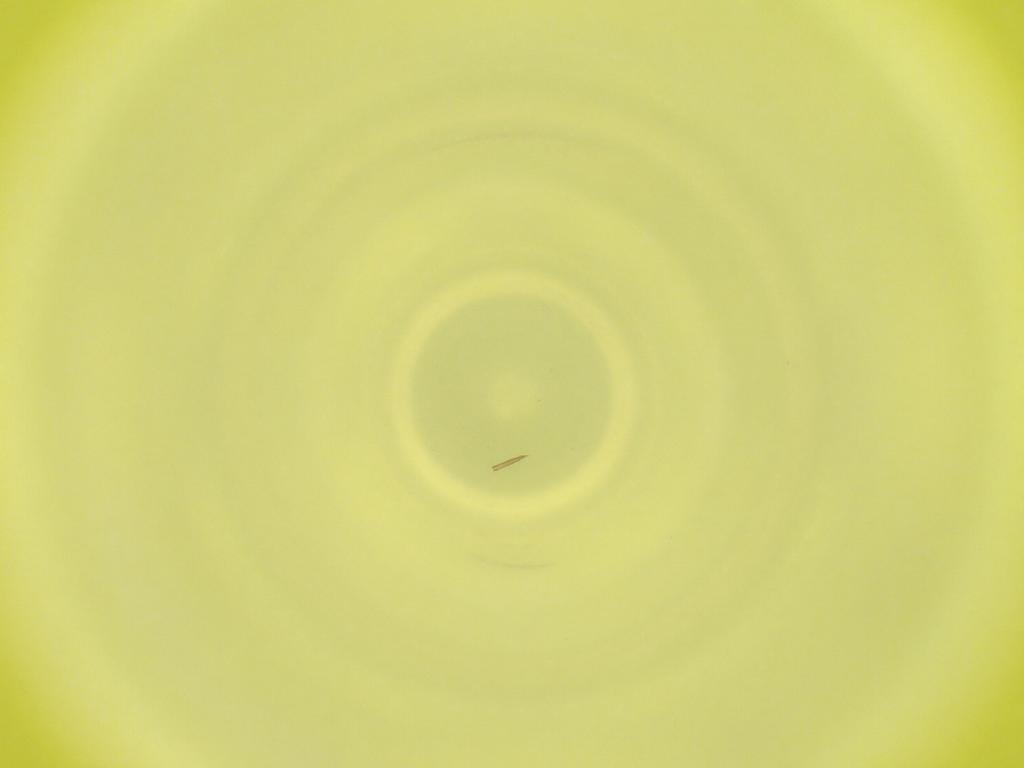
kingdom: Animalia
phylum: Arthropoda
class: Insecta
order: Diptera
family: Cecidomyiidae
